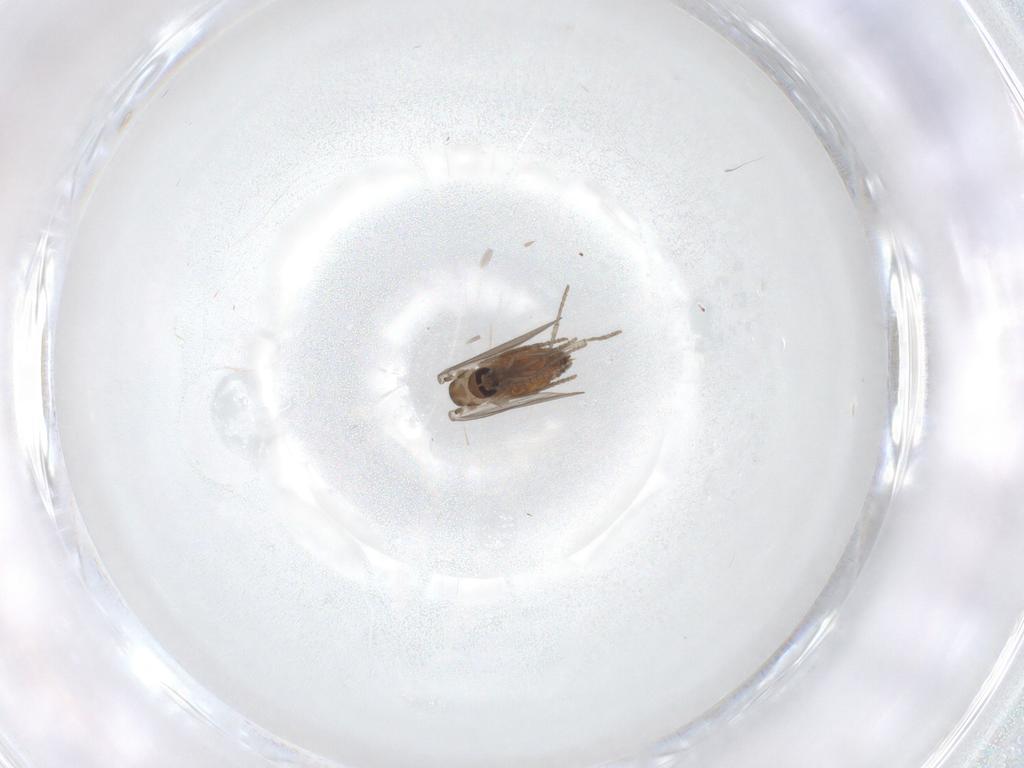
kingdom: Animalia
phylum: Arthropoda
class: Insecta
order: Diptera
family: Psychodidae
